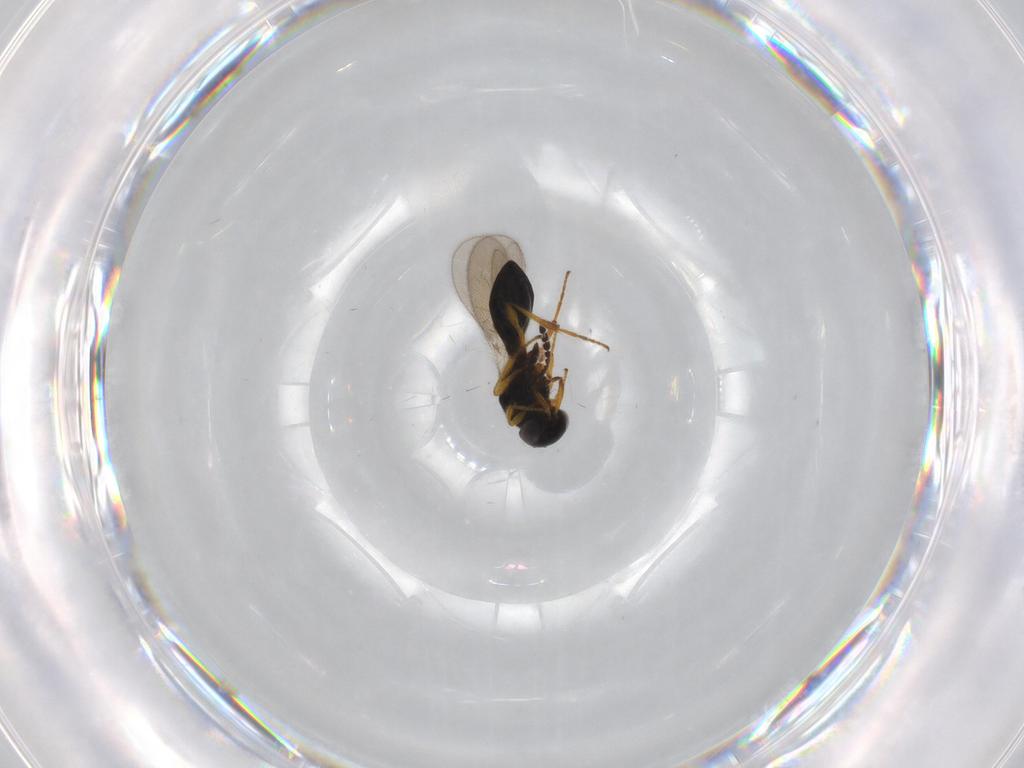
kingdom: Animalia
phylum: Arthropoda
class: Insecta
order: Hymenoptera
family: Platygastridae
